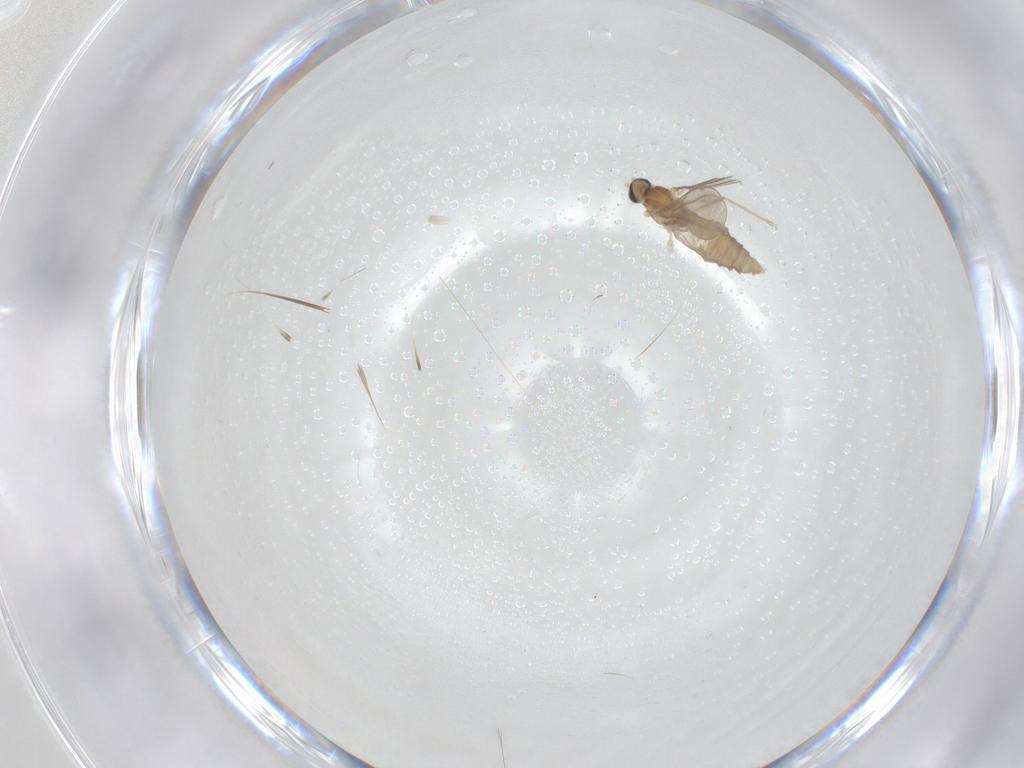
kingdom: Animalia
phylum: Arthropoda
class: Insecta
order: Diptera
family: Cecidomyiidae
